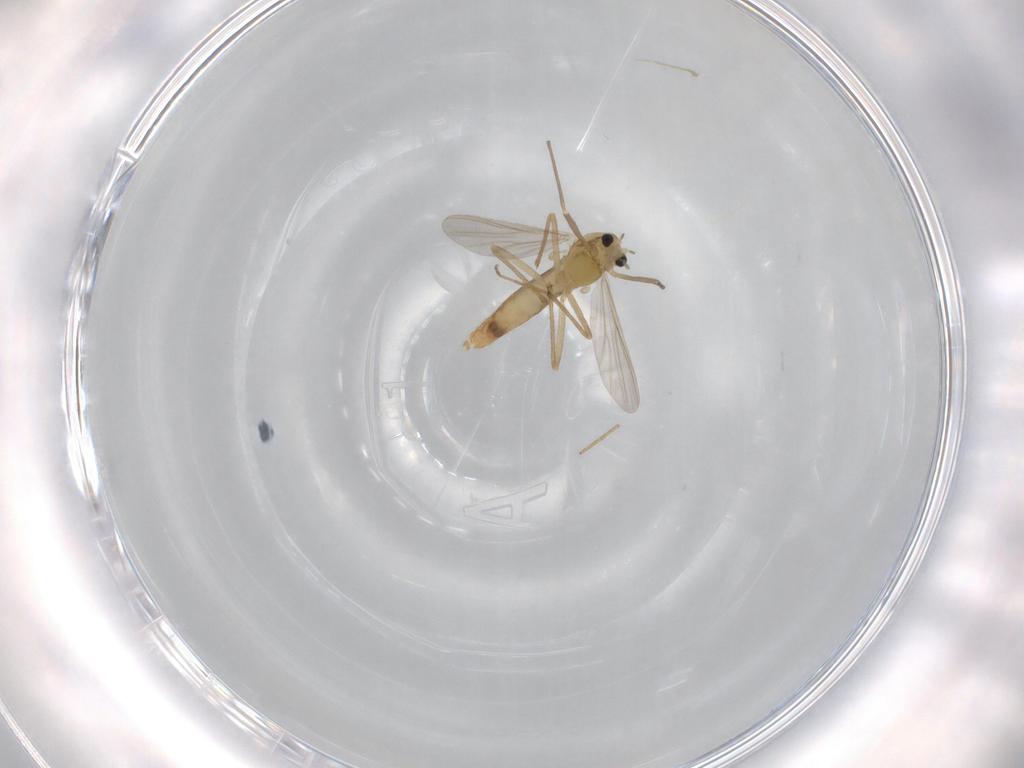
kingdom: Animalia
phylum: Arthropoda
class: Insecta
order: Diptera
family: Chironomidae
